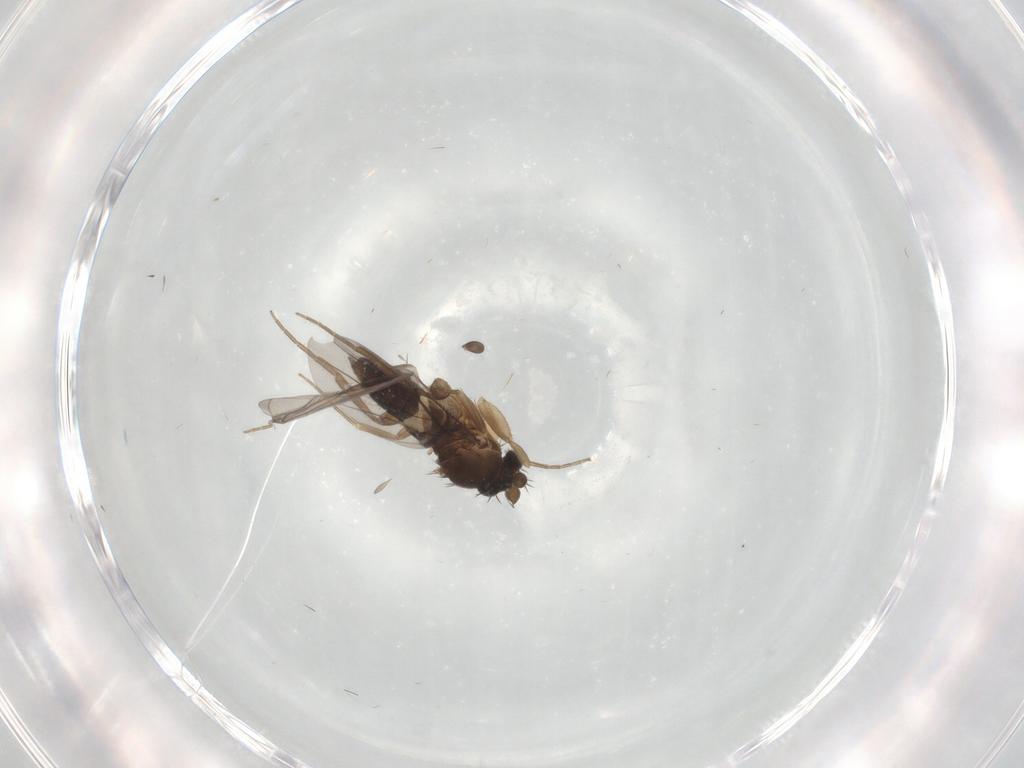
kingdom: Animalia
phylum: Arthropoda
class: Insecta
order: Diptera
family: Phoridae
